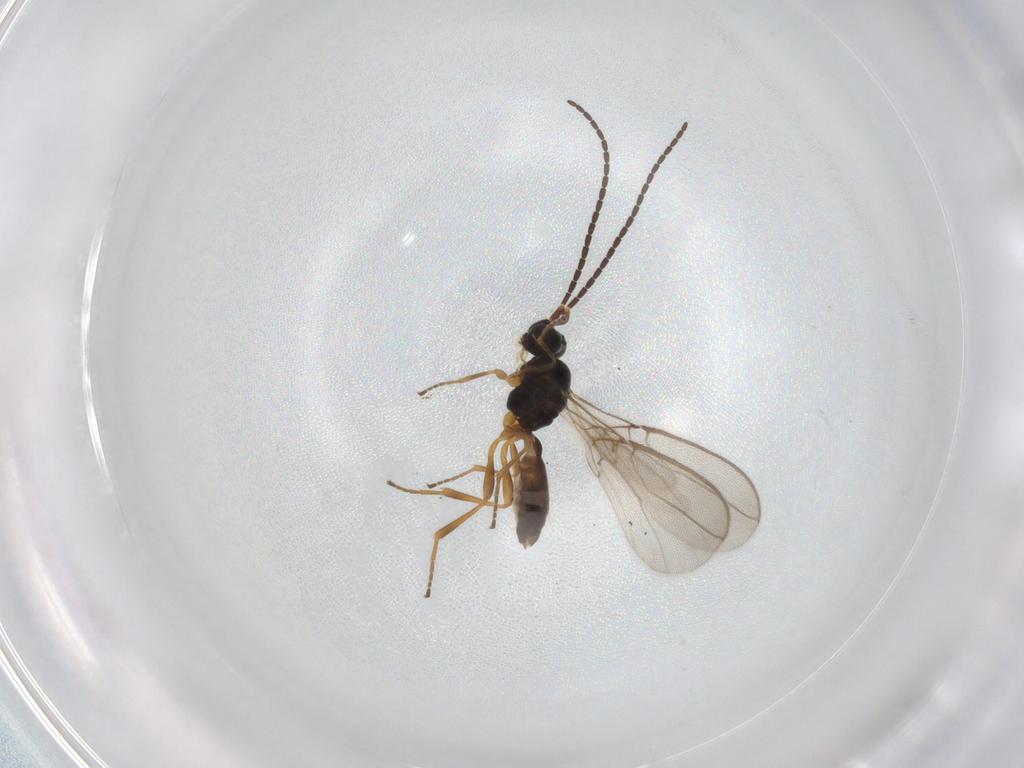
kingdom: Animalia
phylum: Arthropoda
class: Insecta
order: Hymenoptera
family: Braconidae
